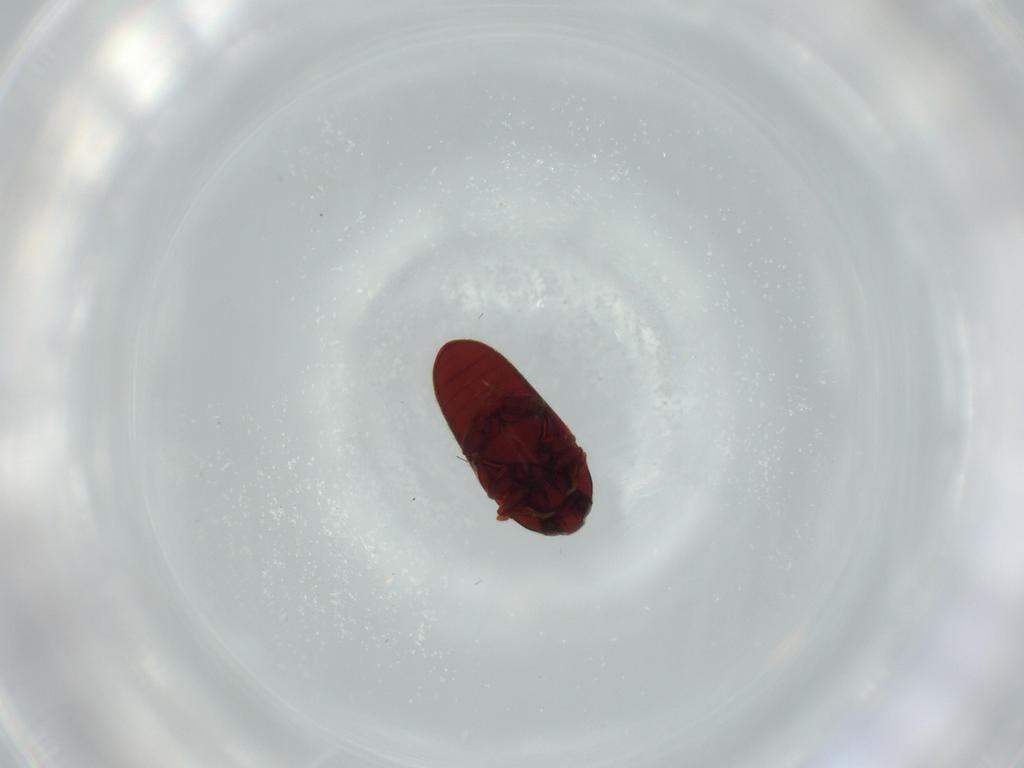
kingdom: Animalia
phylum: Arthropoda
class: Insecta
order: Coleoptera
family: Throscidae
